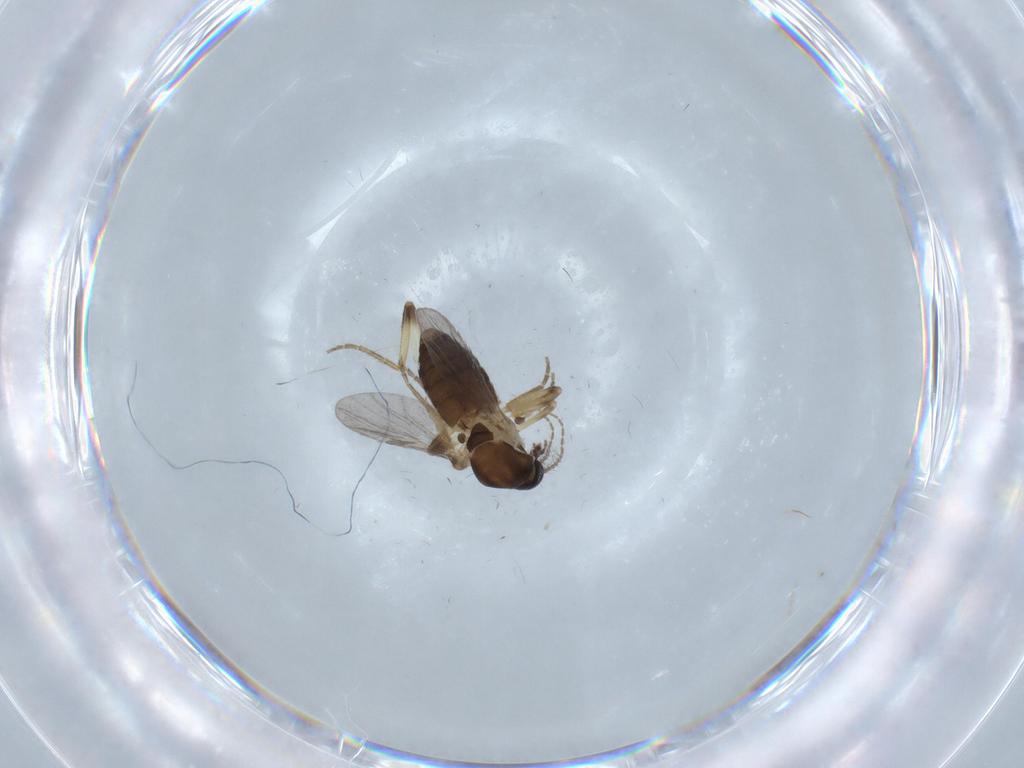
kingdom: Animalia
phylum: Arthropoda
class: Insecta
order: Diptera
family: Ceratopogonidae
